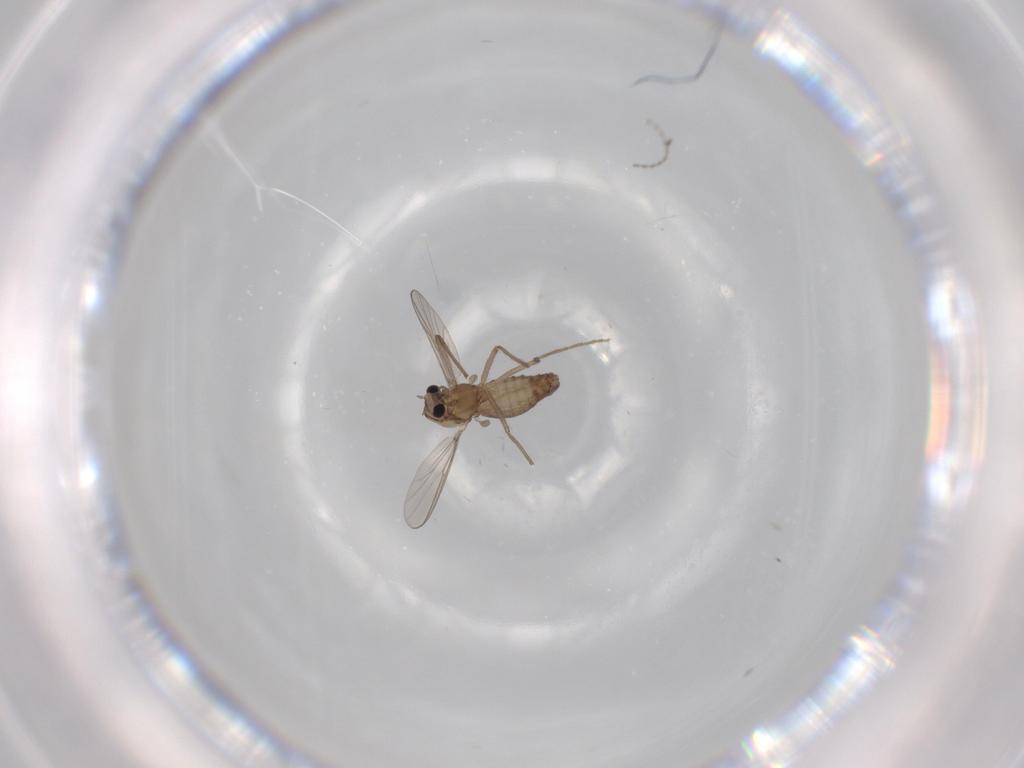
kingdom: Animalia
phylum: Arthropoda
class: Insecta
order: Diptera
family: Chironomidae
